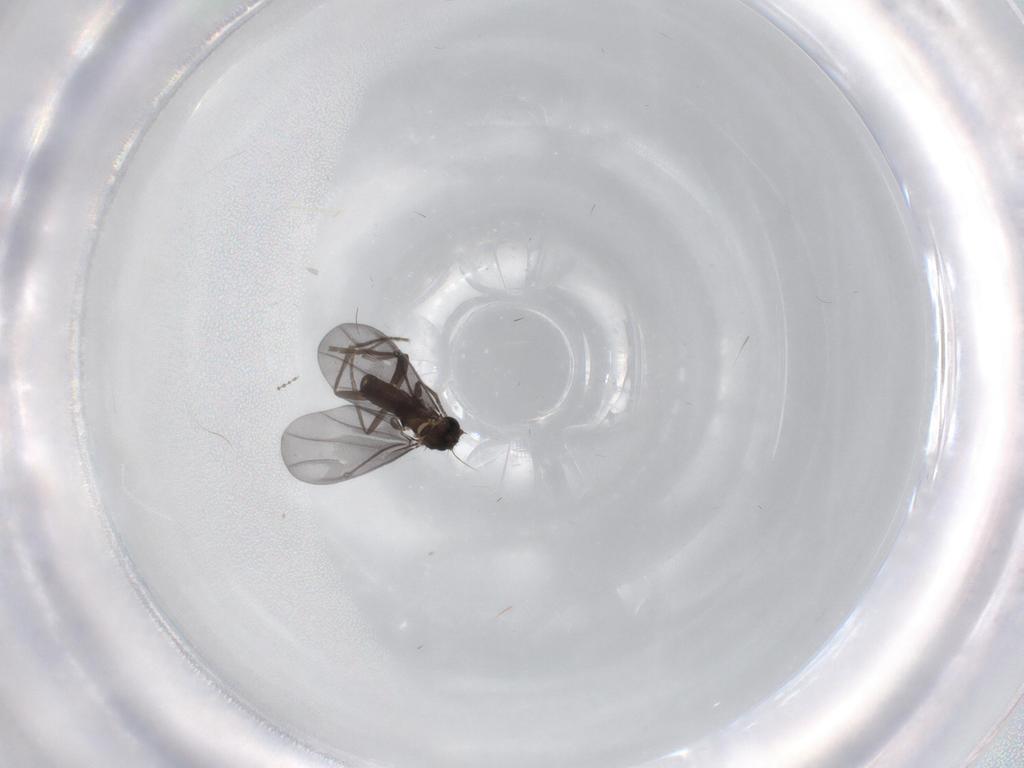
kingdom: Animalia
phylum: Arthropoda
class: Insecta
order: Diptera
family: Phoridae
